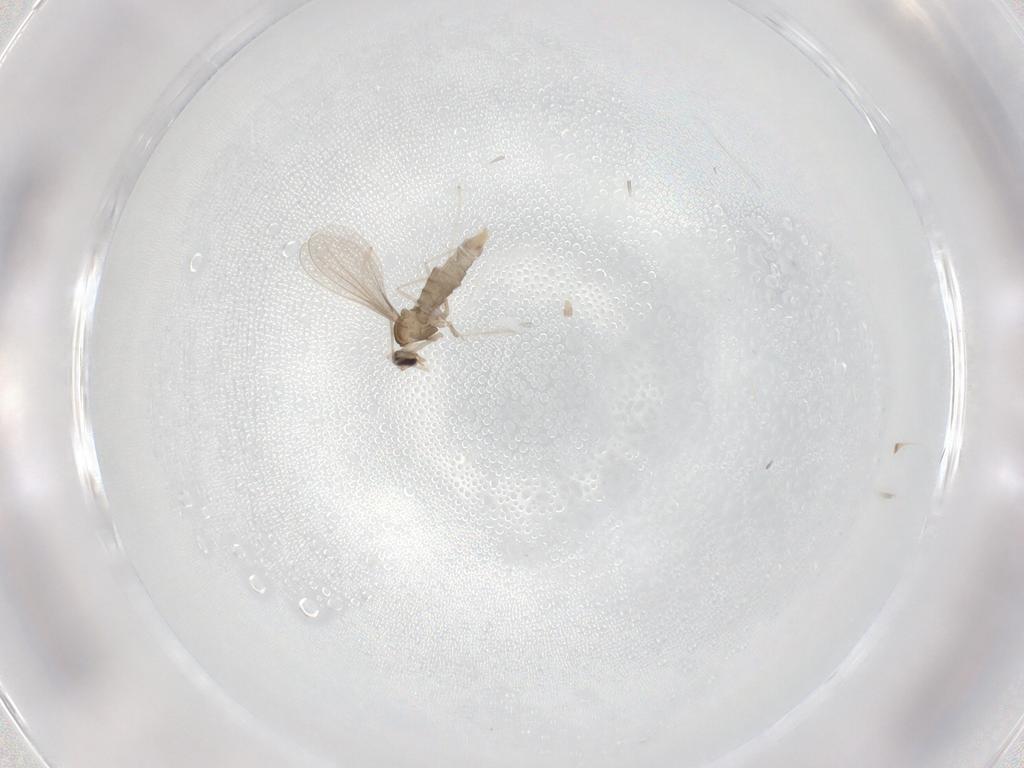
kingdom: Animalia
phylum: Arthropoda
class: Insecta
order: Diptera
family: Cecidomyiidae
